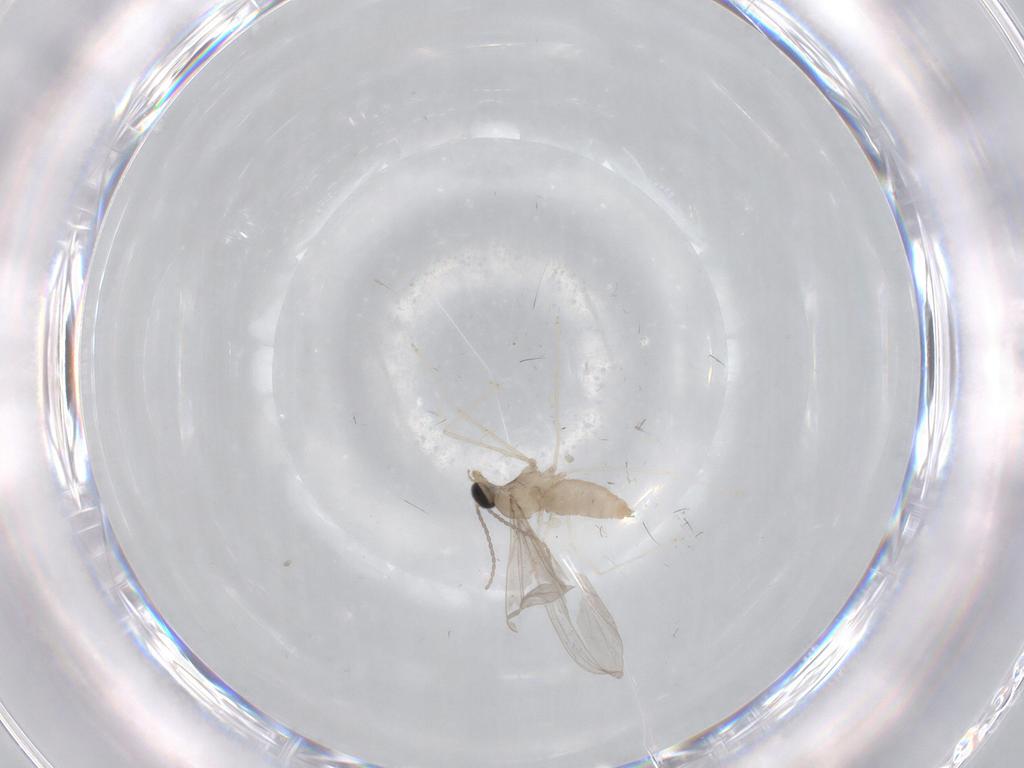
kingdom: Animalia
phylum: Arthropoda
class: Insecta
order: Diptera
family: Cecidomyiidae
